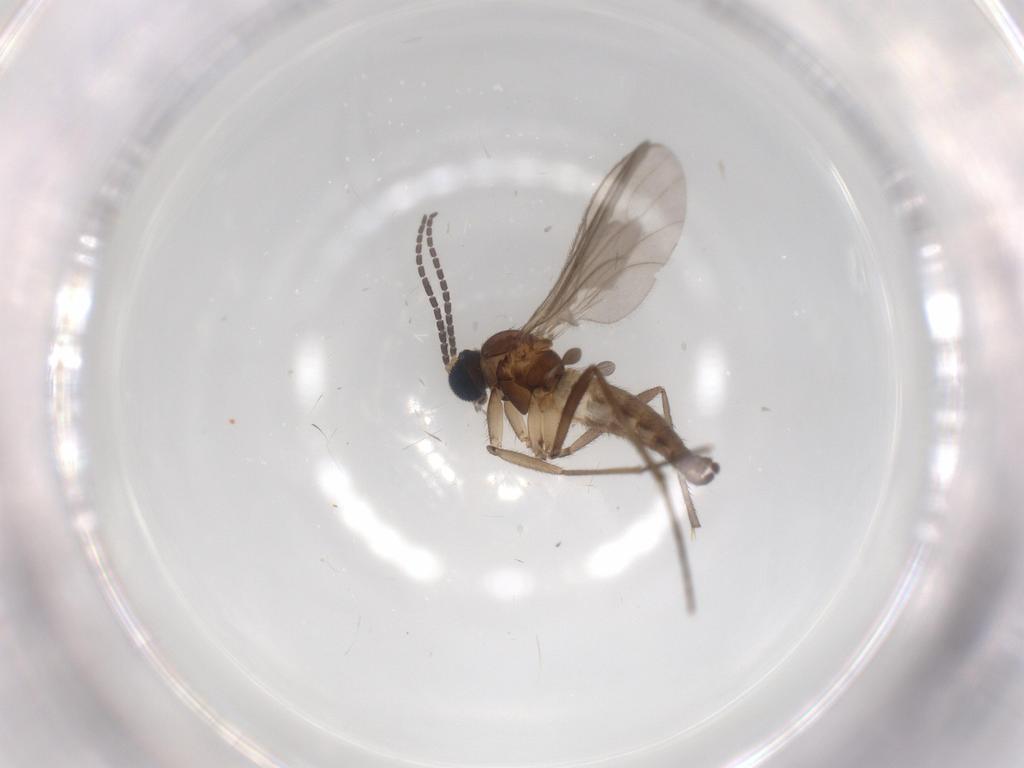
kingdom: Animalia
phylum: Arthropoda
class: Insecta
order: Diptera
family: Sciaridae
